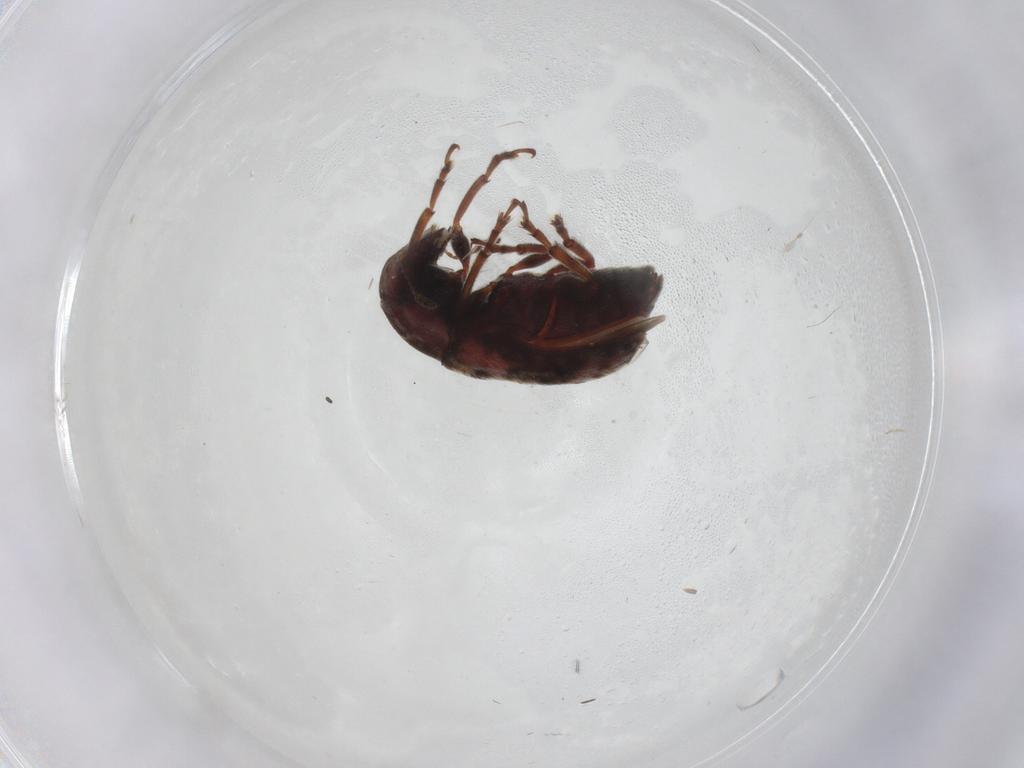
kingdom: Animalia
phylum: Arthropoda
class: Insecta
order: Coleoptera
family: Anthribidae
